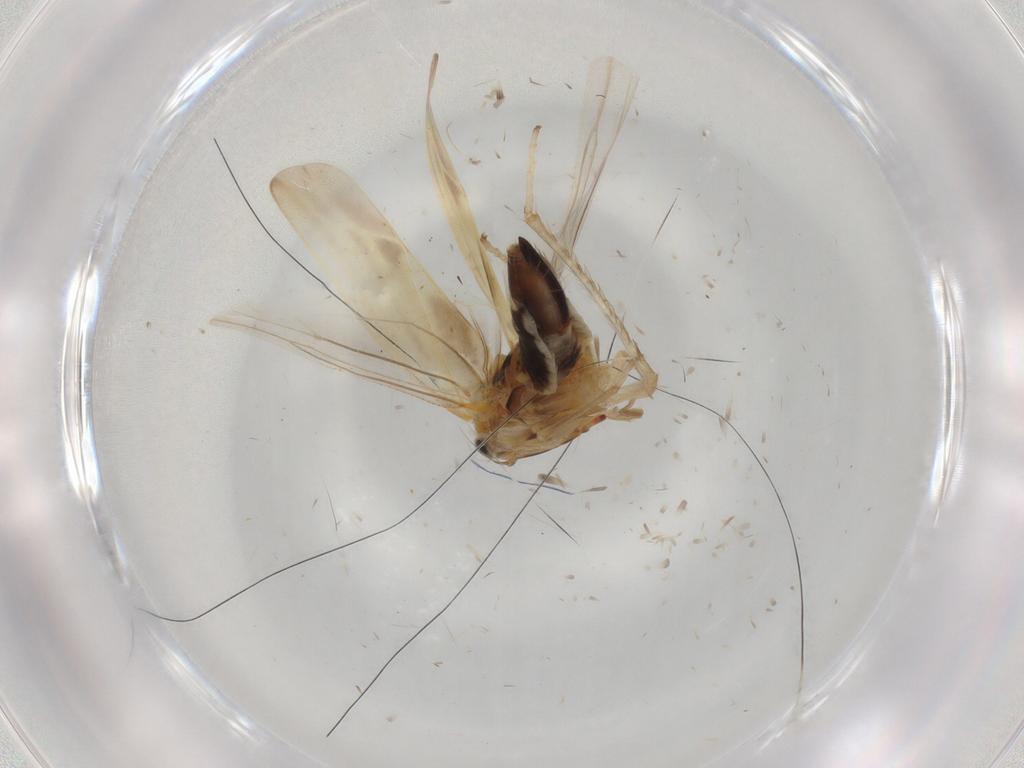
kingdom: Animalia
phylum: Arthropoda
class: Insecta
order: Hemiptera
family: Cicadellidae
